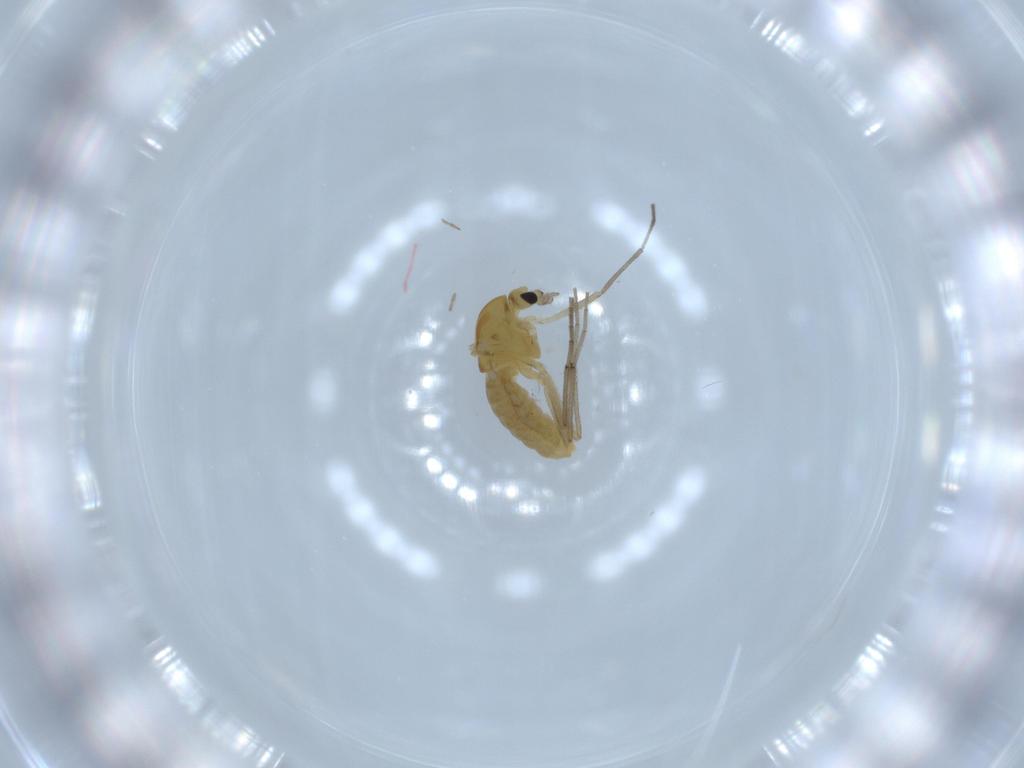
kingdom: Animalia
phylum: Arthropoda
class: Insecta
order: Diptera
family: Chironomidae
